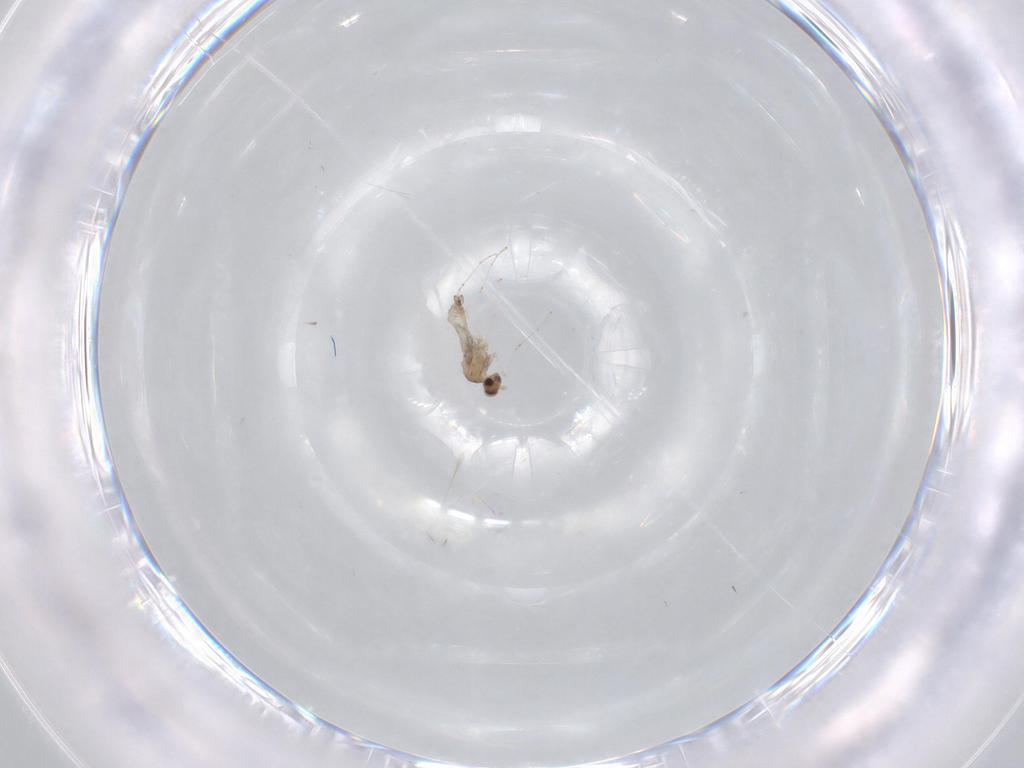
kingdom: Animalia
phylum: Arthropoda
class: Insecta
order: Diptera
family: Cecidomyiidae
